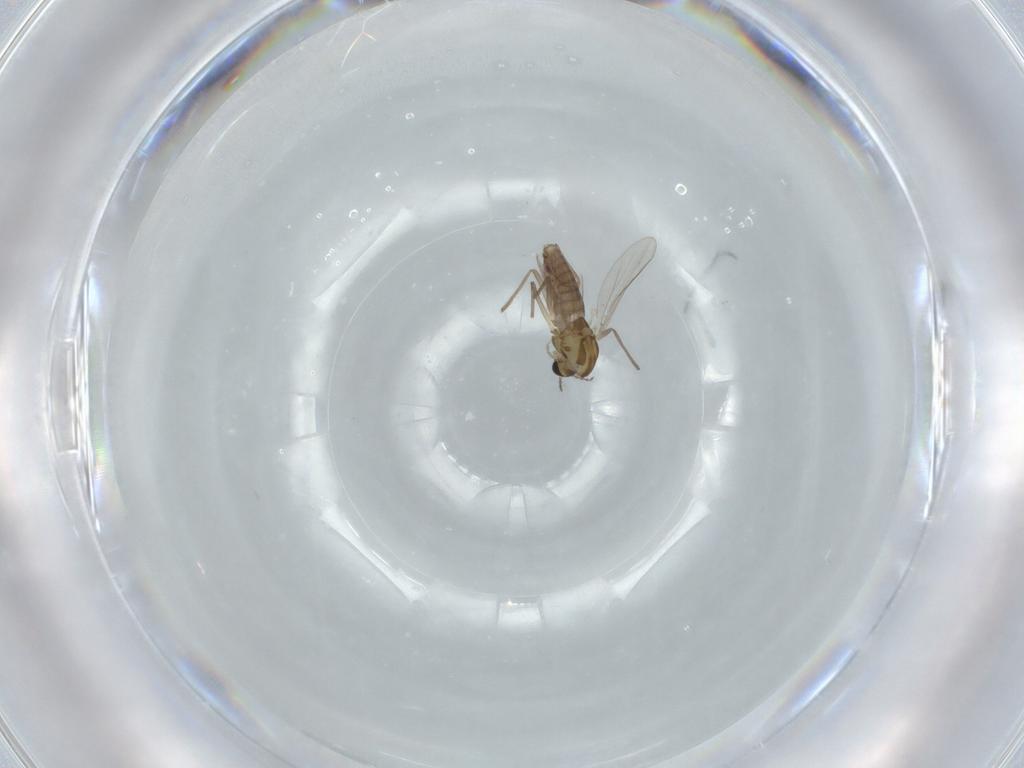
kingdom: Animalia
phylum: Arthropoda
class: Insecta
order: Diptera
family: Chironomidae
